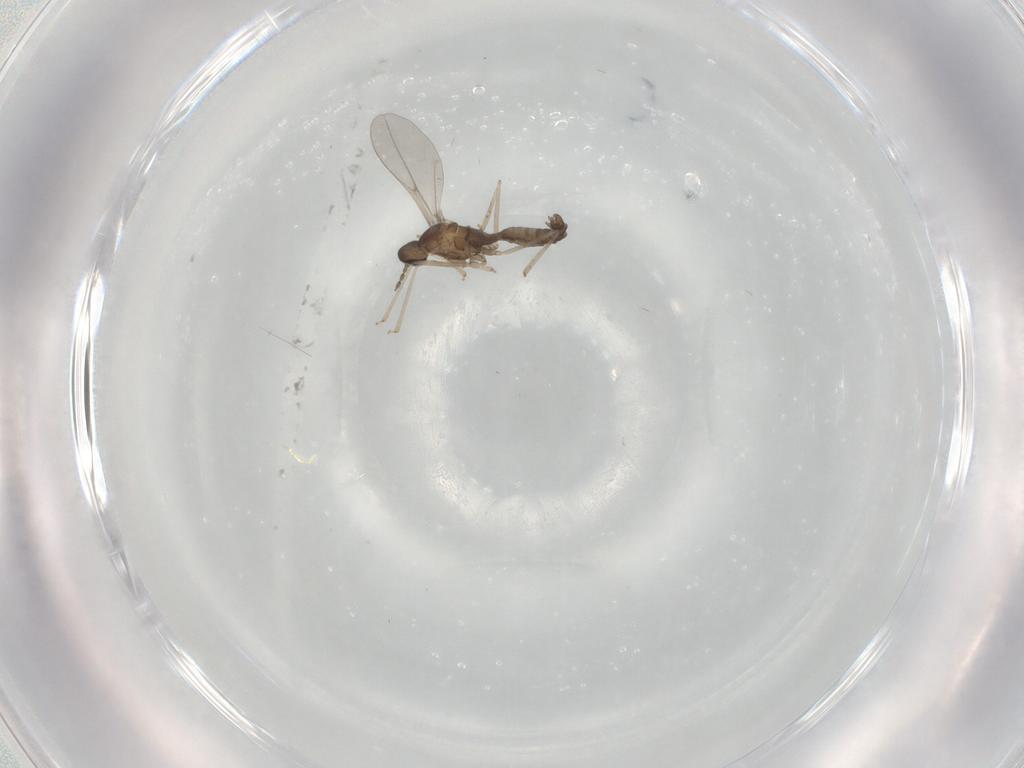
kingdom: Animalia
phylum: Arthropoda
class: Insecta
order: Diptera
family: Cecidomyiidae
